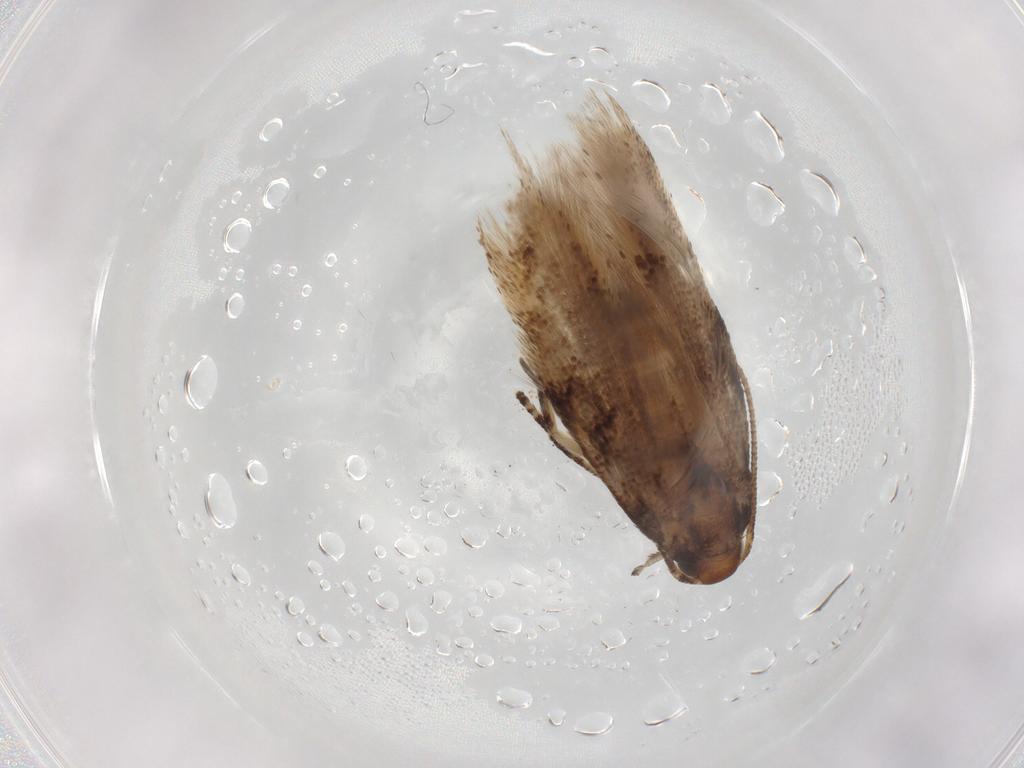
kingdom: Animalia
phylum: Arthropoda
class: Insecta
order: Lepidoptera
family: Gelechiidae
